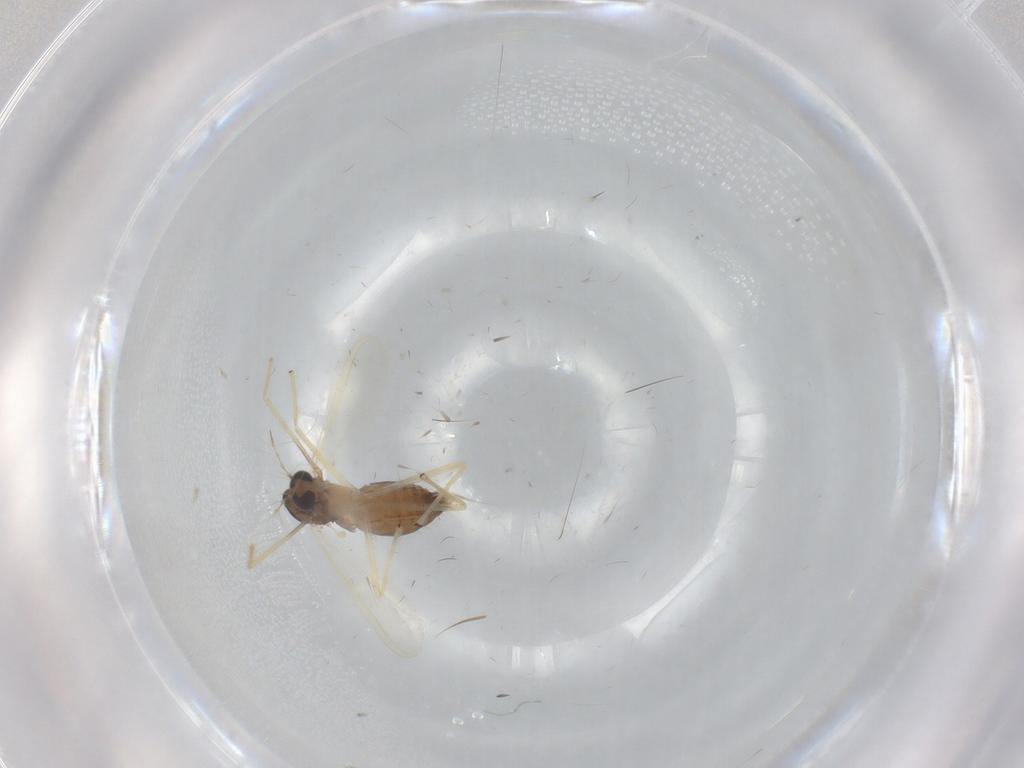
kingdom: Animalia
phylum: Arthropoda
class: Insecta
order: Diptera
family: Chironomidae
